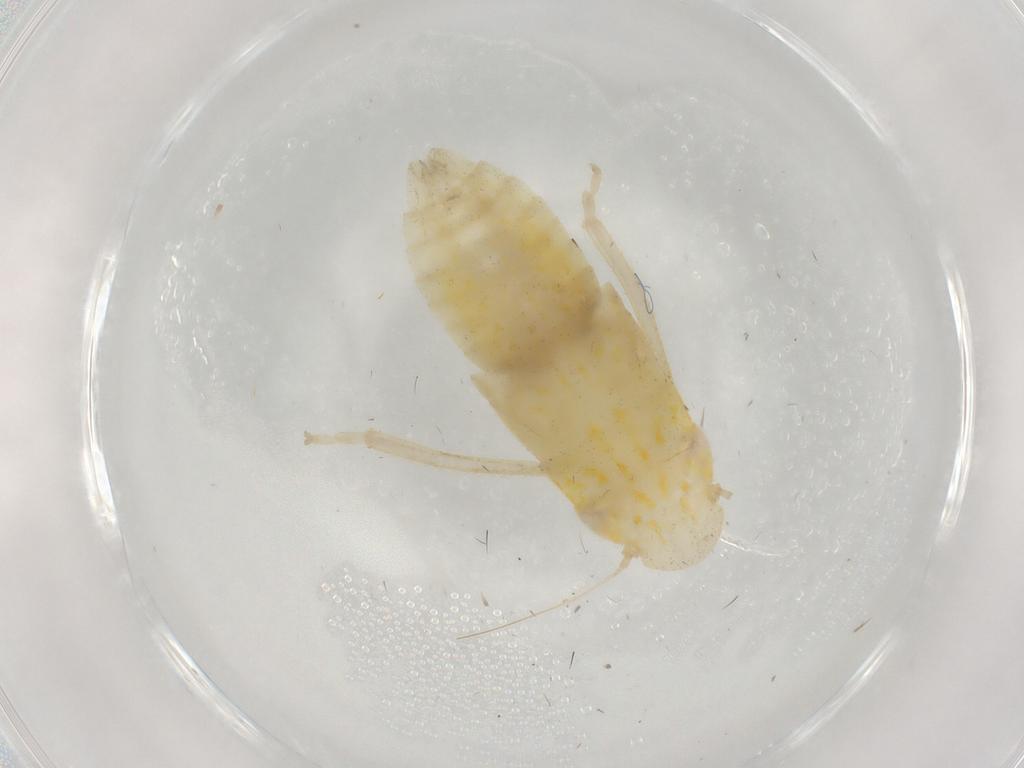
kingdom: Animalia
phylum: Arthropoda
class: Insecta
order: Hemiptera
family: Cicadellidae
